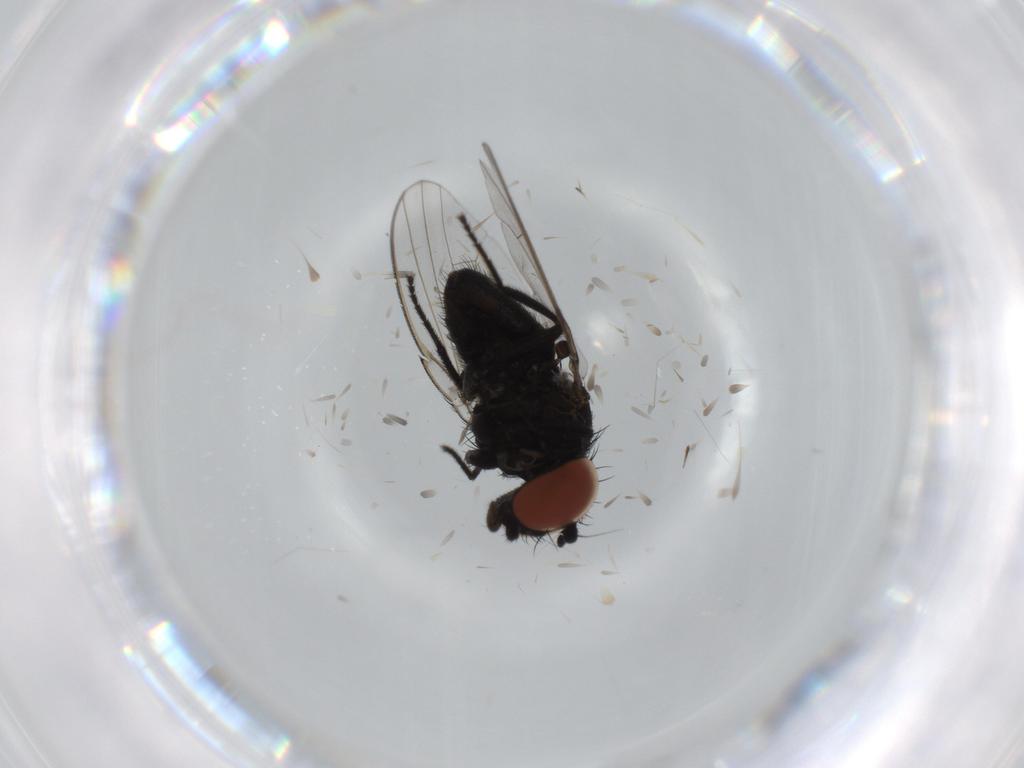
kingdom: Animalia
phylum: Arthropoda
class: Insecta
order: Diptera
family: Milichiidae
